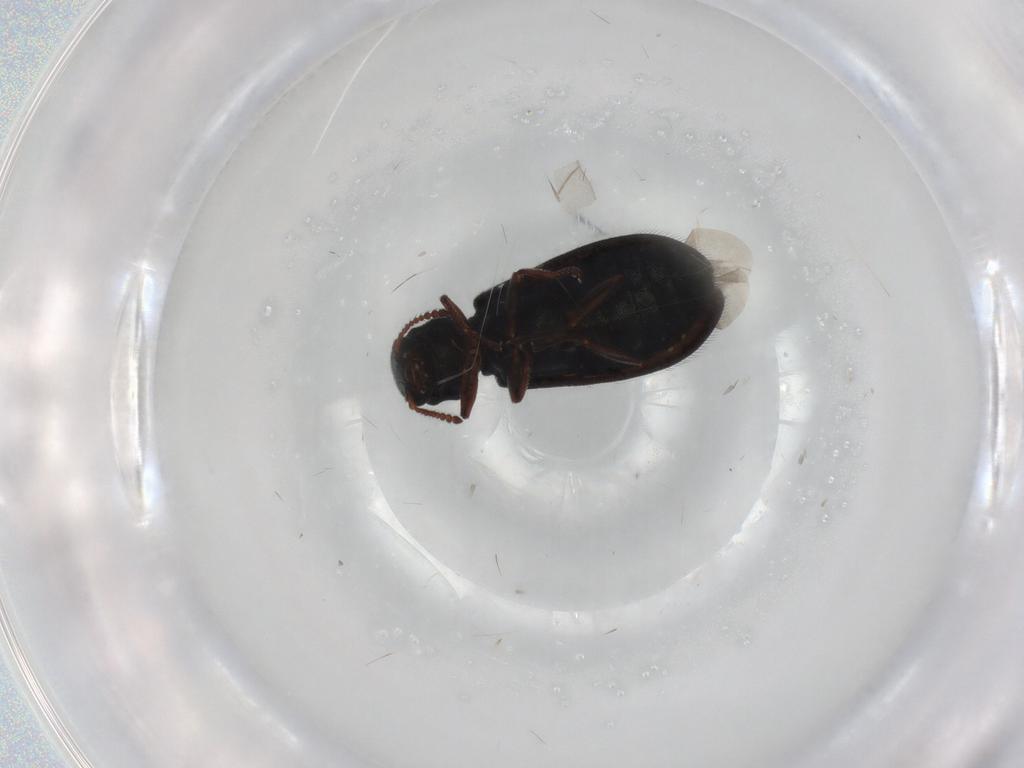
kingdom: Animalia
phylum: Arthropoda
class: Insecta
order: Coleoptera
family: Melyridae
